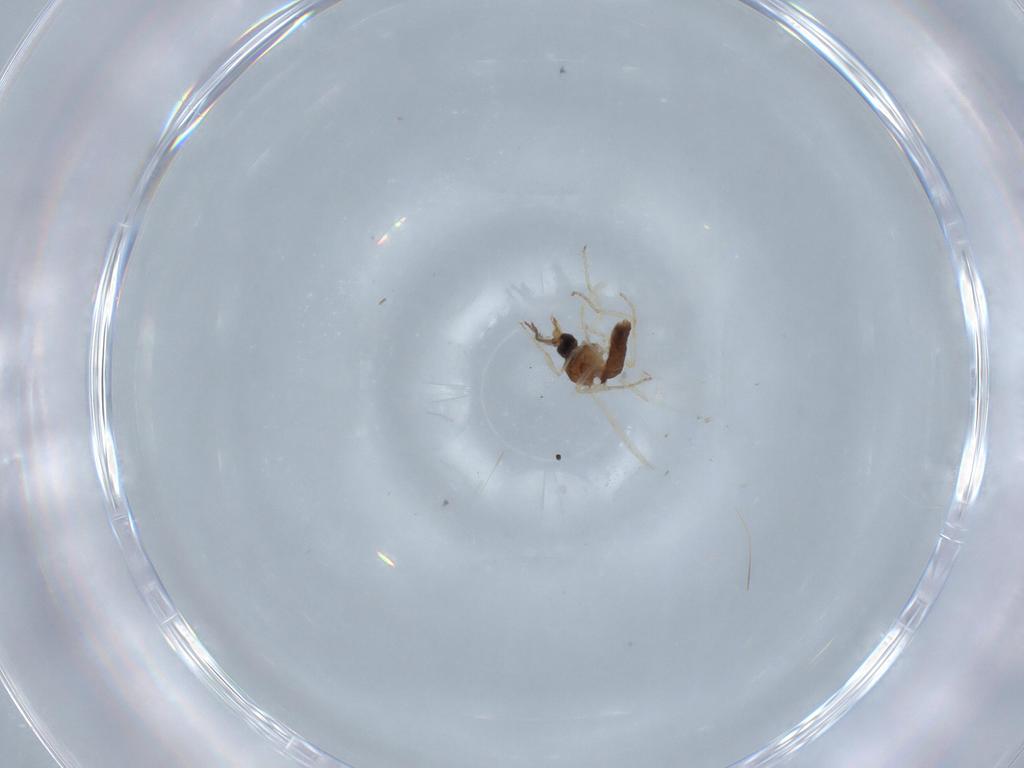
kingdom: Animalia
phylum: Arthropoda
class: Insecta
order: Diptera
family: Ceratopogonidae
